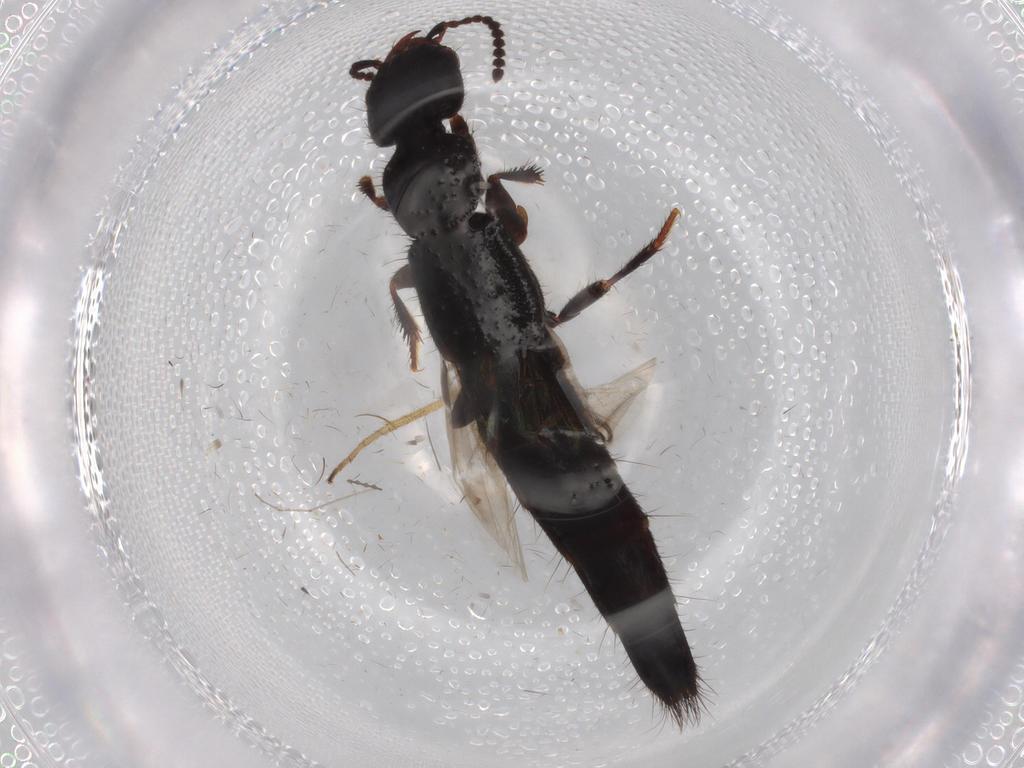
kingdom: Animalia
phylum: Arthropoda
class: Insecta
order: Coleoptera
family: Staphylinidae
